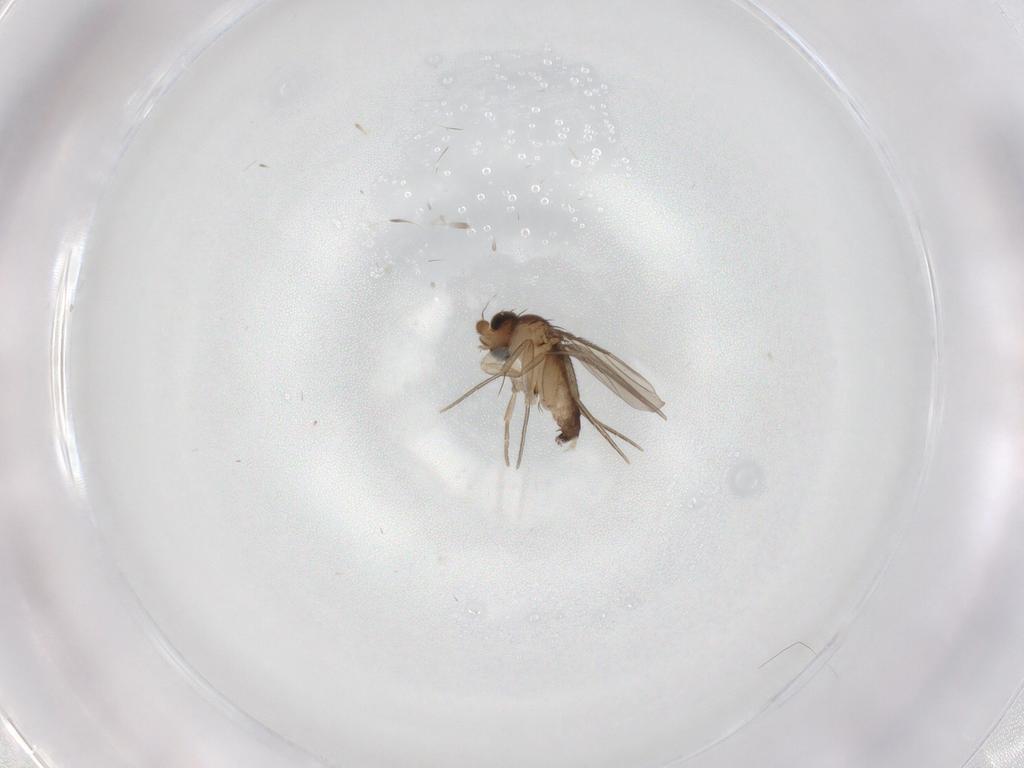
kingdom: Animalia
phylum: Arthropoda
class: Insecta
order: Diptera
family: Phoridae
